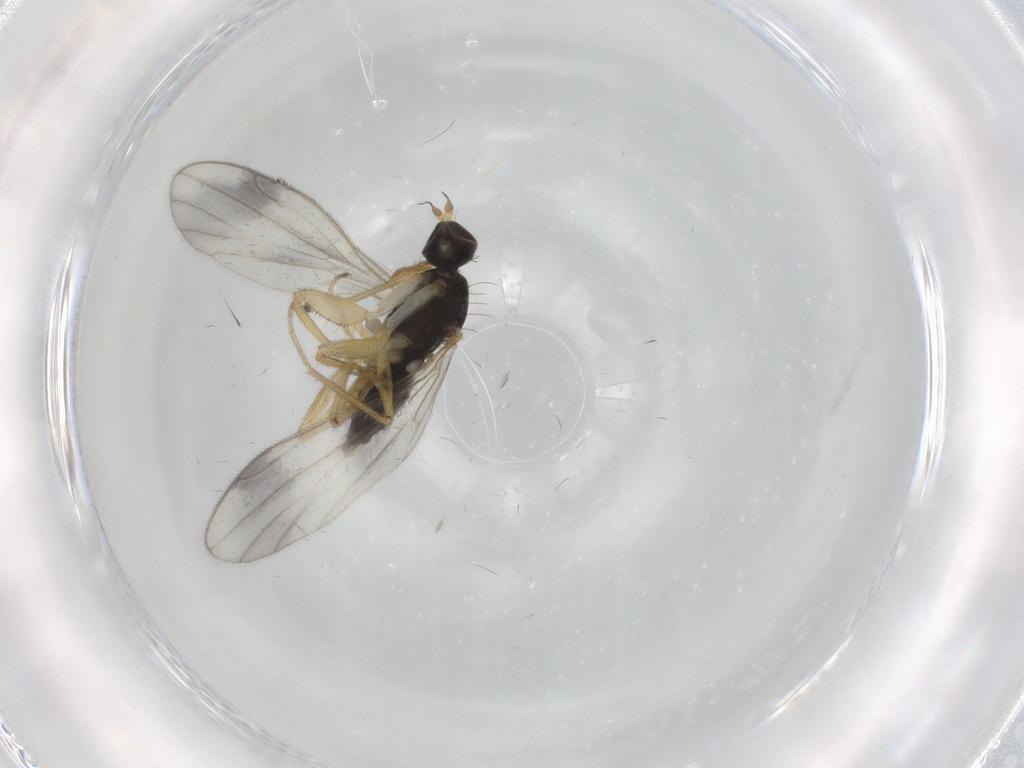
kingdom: Animalia
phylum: Arthropoda
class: Insecta
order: Diptera
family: Empididae
